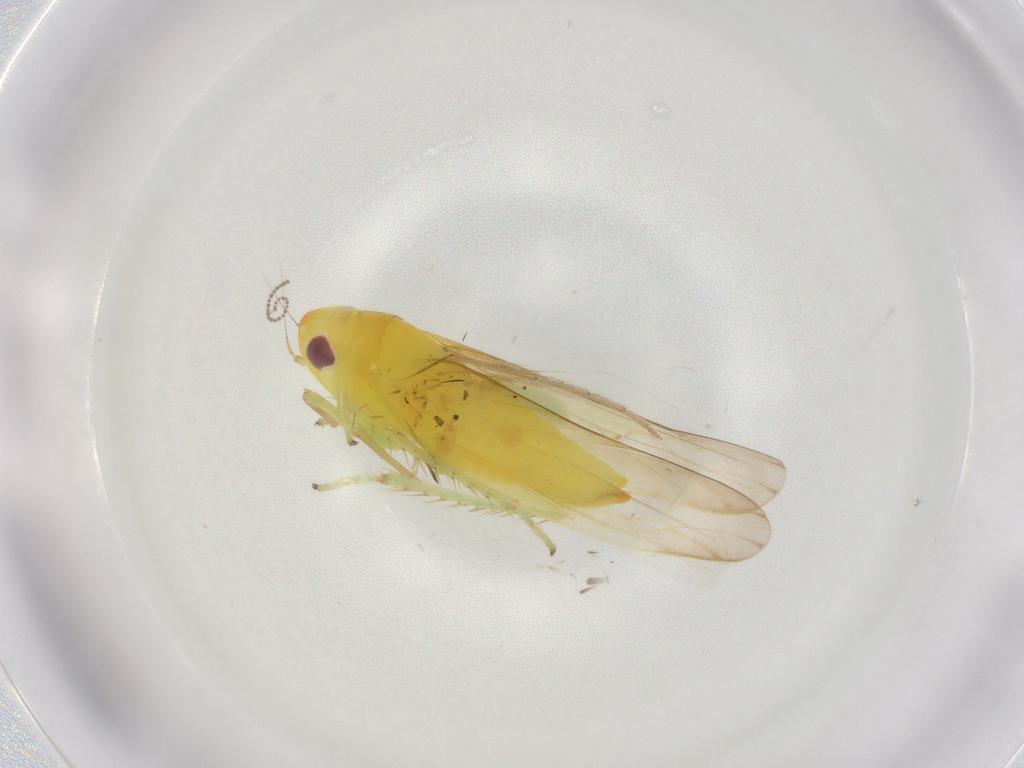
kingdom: Animalia
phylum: Arthropoda
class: Insecta
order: Hemiptera
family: Cicadellidae
